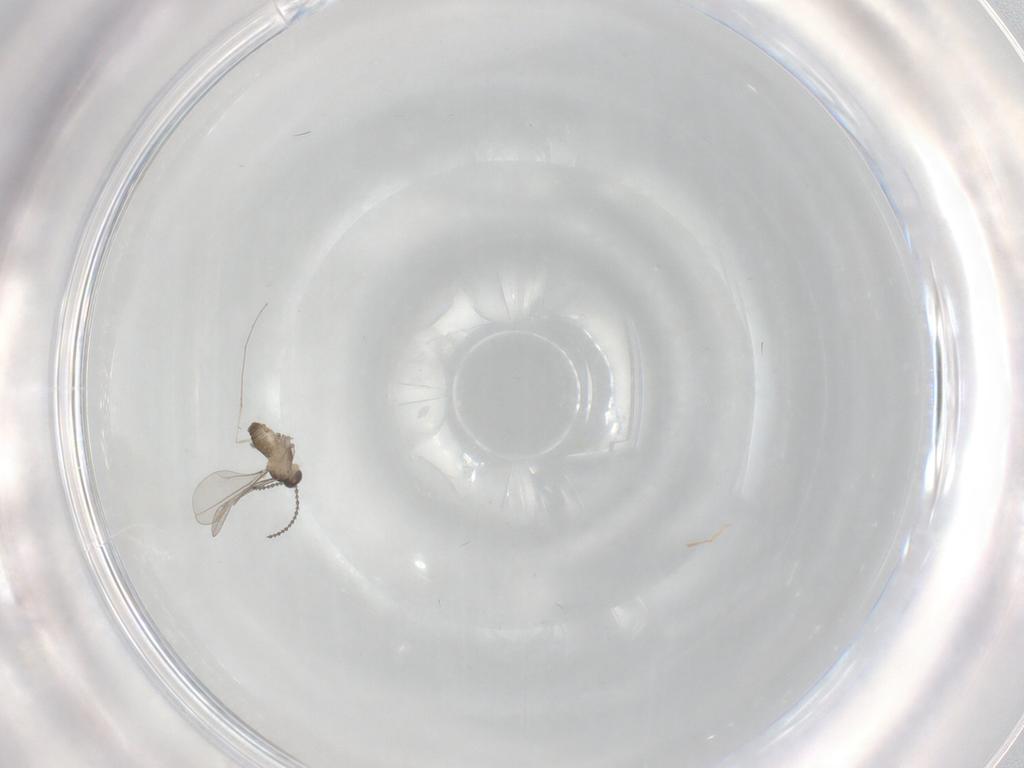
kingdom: Animalia
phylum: Arthropoda
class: Insecta
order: Diptera
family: Cecidomyiidae
